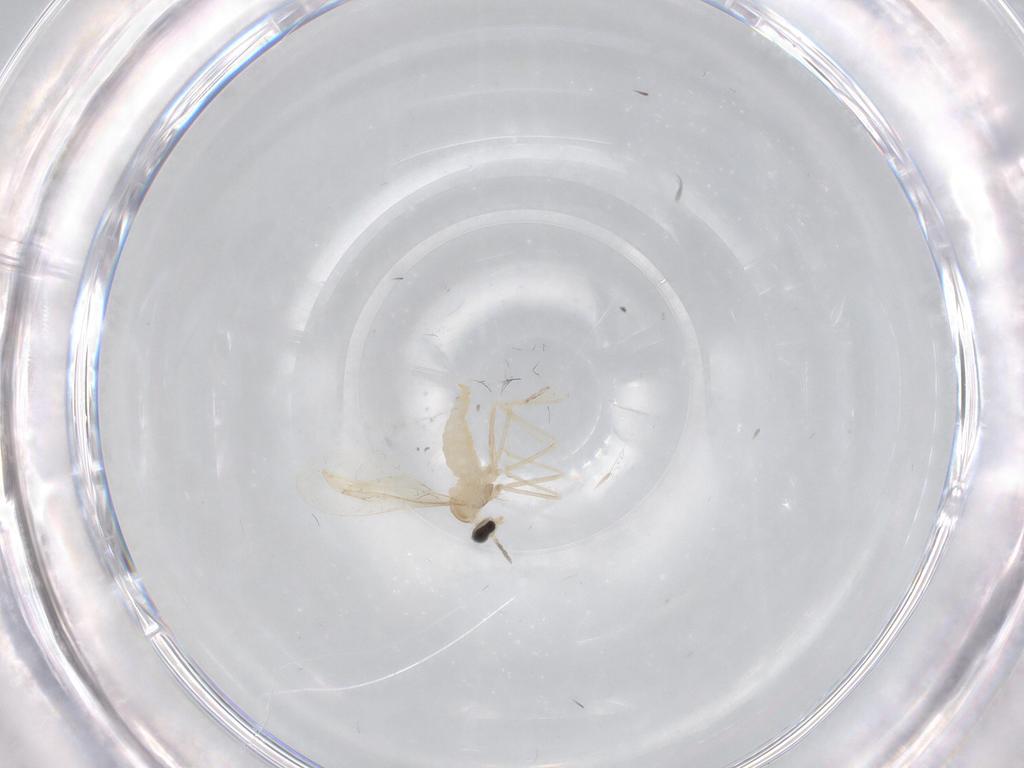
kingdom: Animalia
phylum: Arthropoda
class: Insecta
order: Diptera
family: Cecidomyiidae
